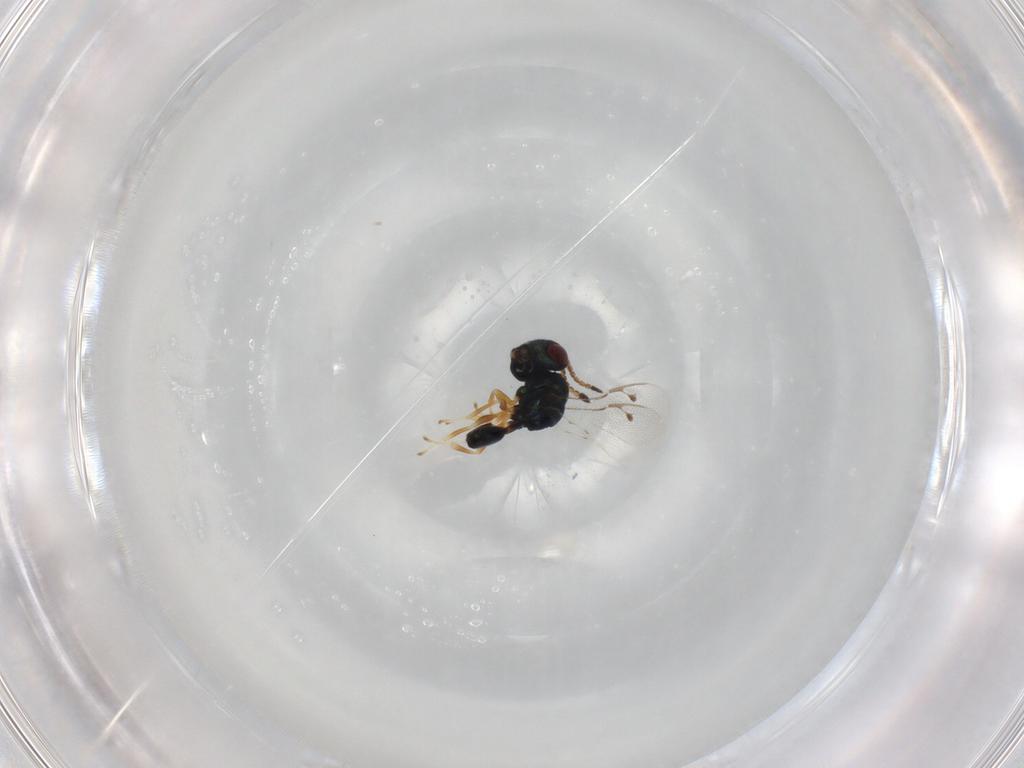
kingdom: Animalia
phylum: Arthropoda
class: Insecta
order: Hymenoptera
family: Pteromalidae
